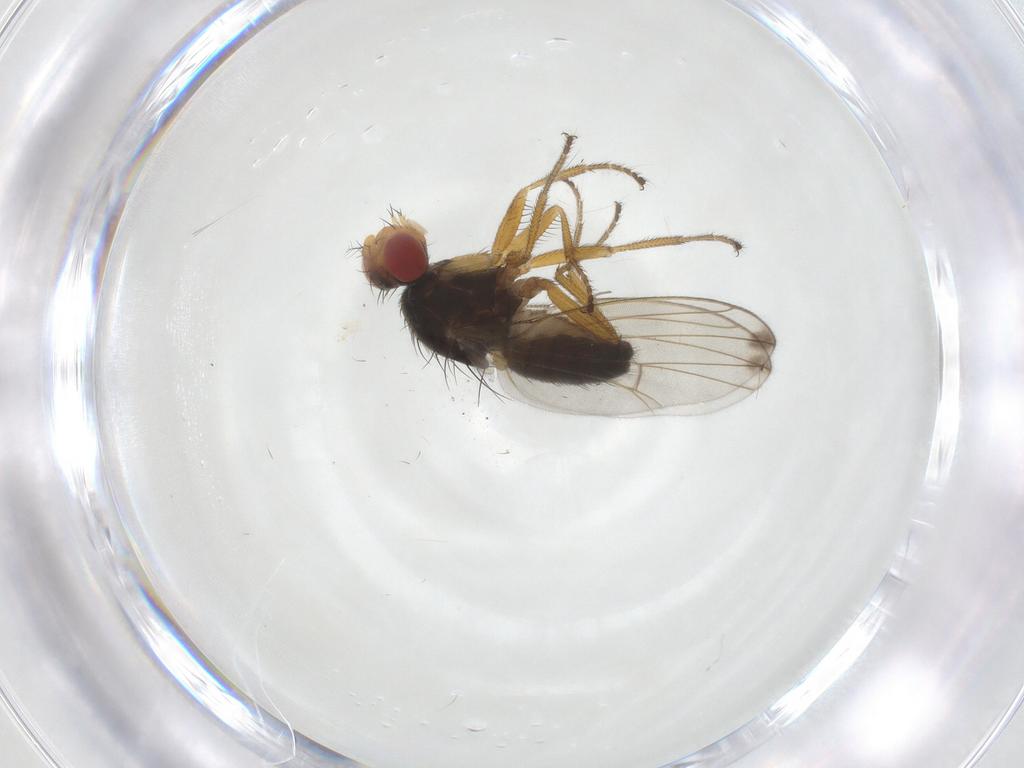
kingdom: Animalia
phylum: Arthropoda
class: Insecta
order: Diptera
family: Drosophilidae
